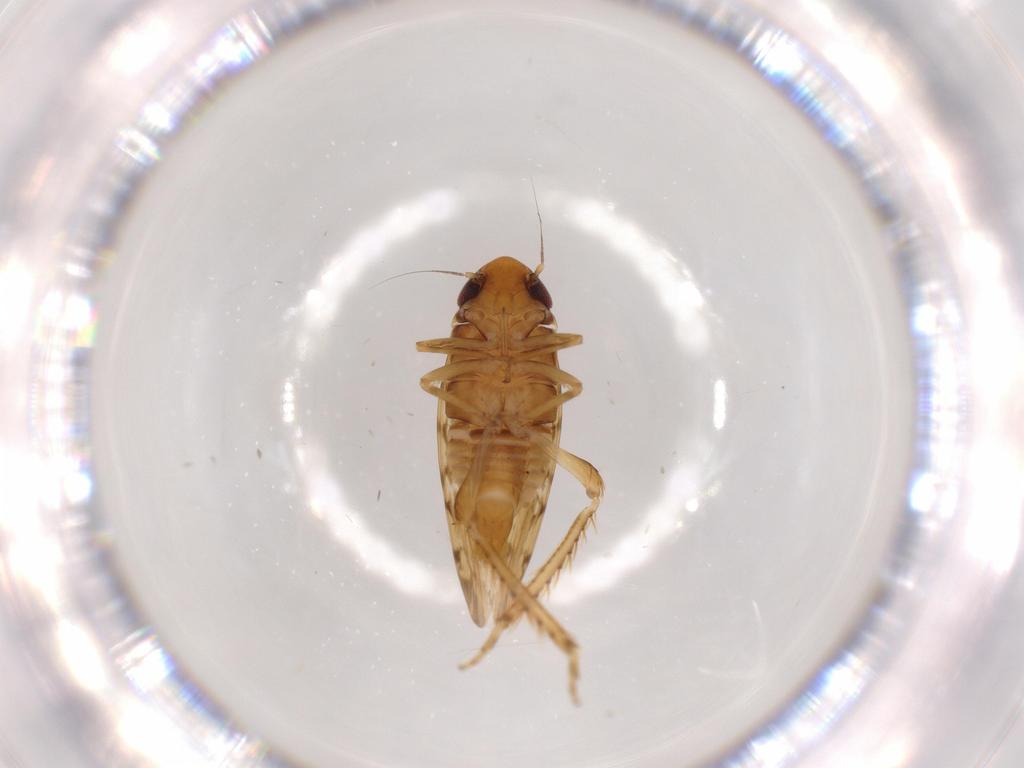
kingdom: Animalia
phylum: Arthropoda
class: Insecta
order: Hemiptera
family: Cicadellidae
